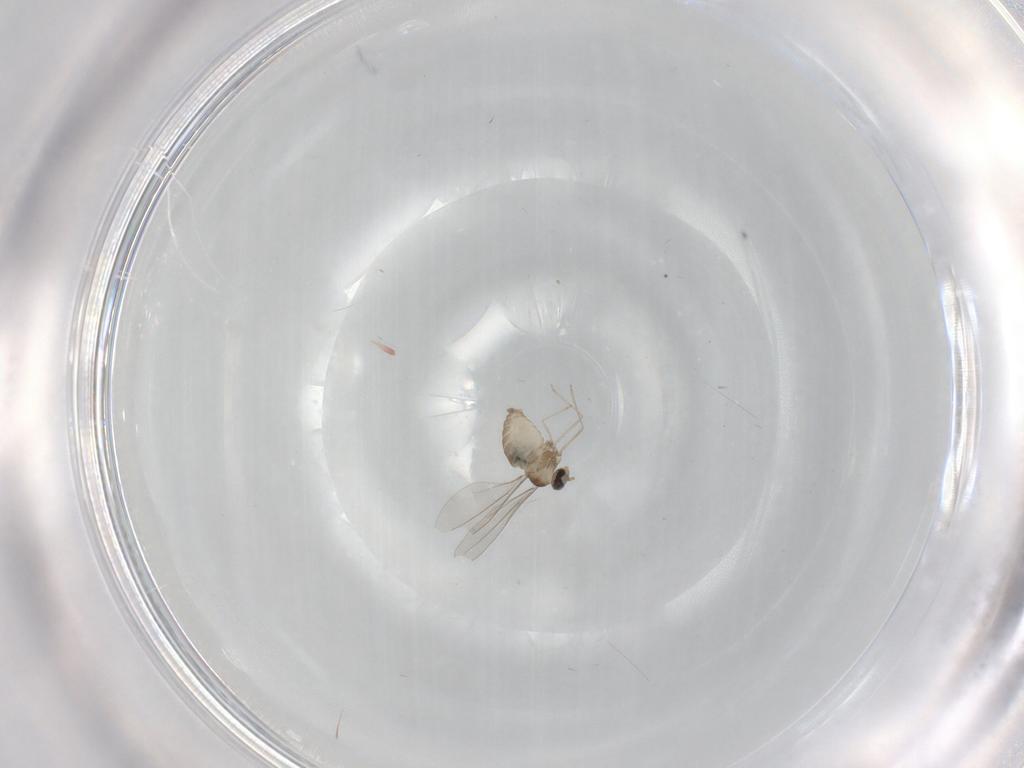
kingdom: Animalia
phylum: Arthropoda
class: Insecta
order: Diptera
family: Cecidomyiidae
